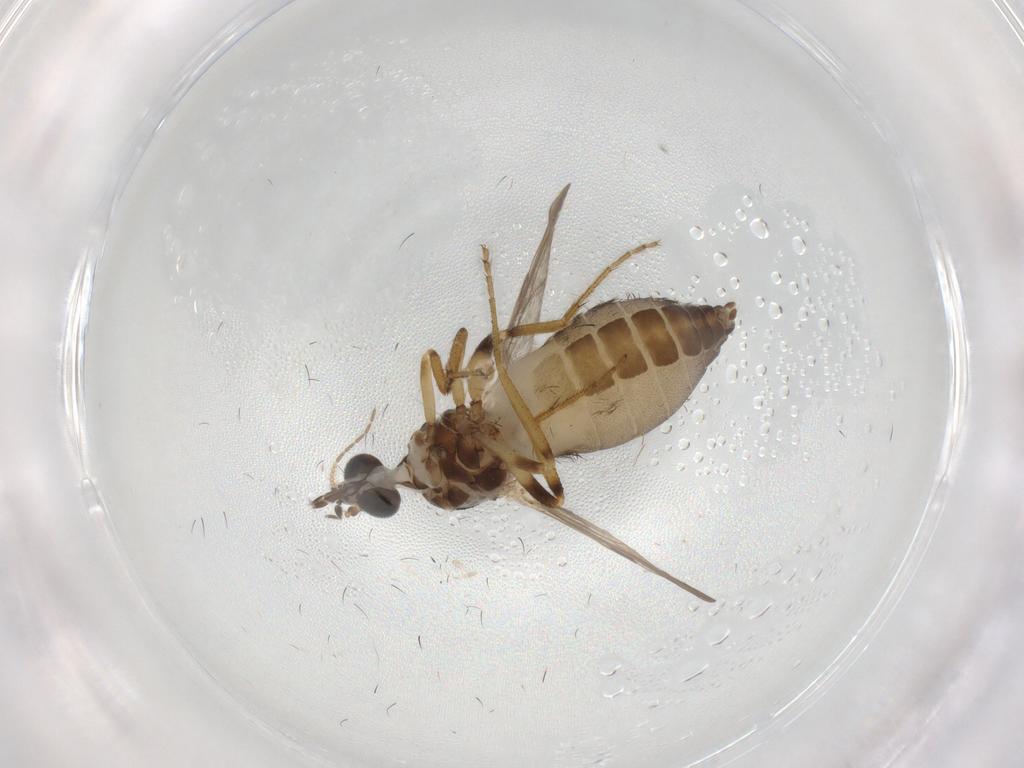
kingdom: Animalia
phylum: Arthropoda
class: Insecta
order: Diptera
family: Ceratopogonidae
